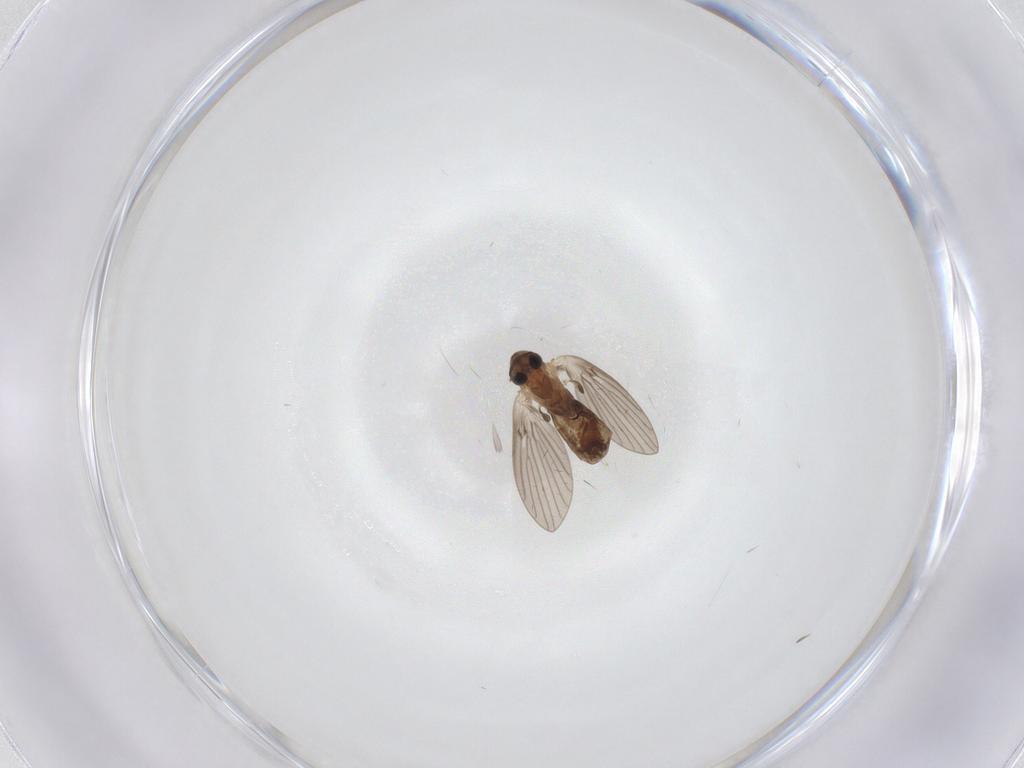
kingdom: Animalia
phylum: Arthropoda
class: Insecta
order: Diptera
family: Psychodidae
